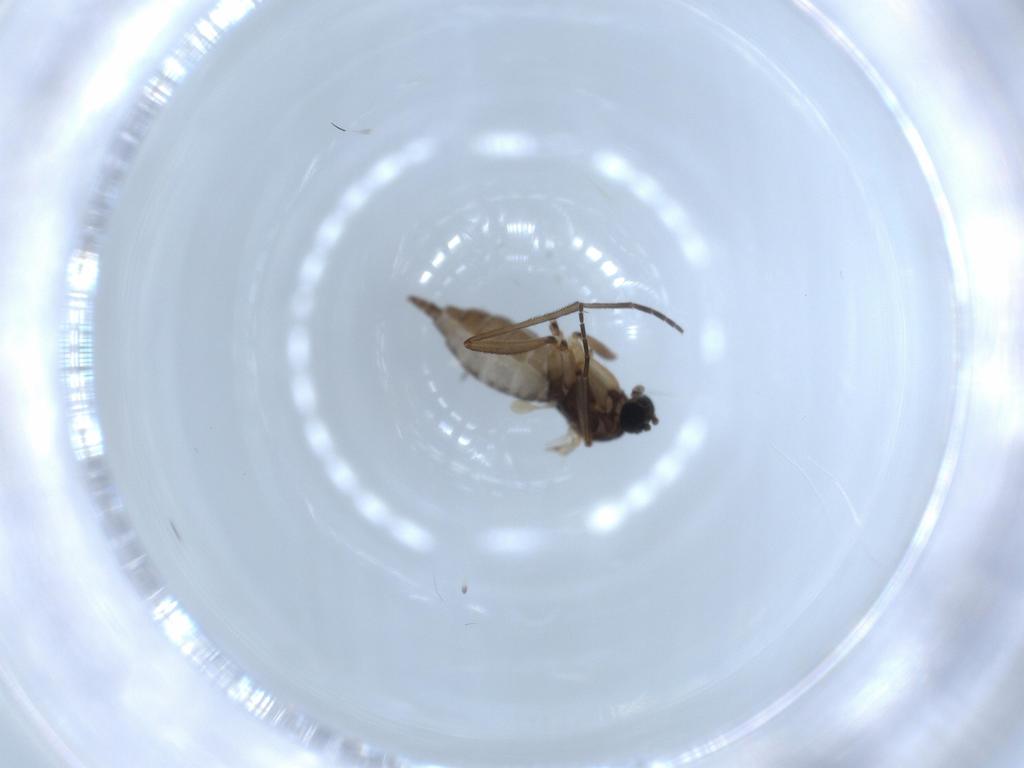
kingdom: Animalia
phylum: Arthropoda
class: Insecta
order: Diptera
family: Sciaridae
